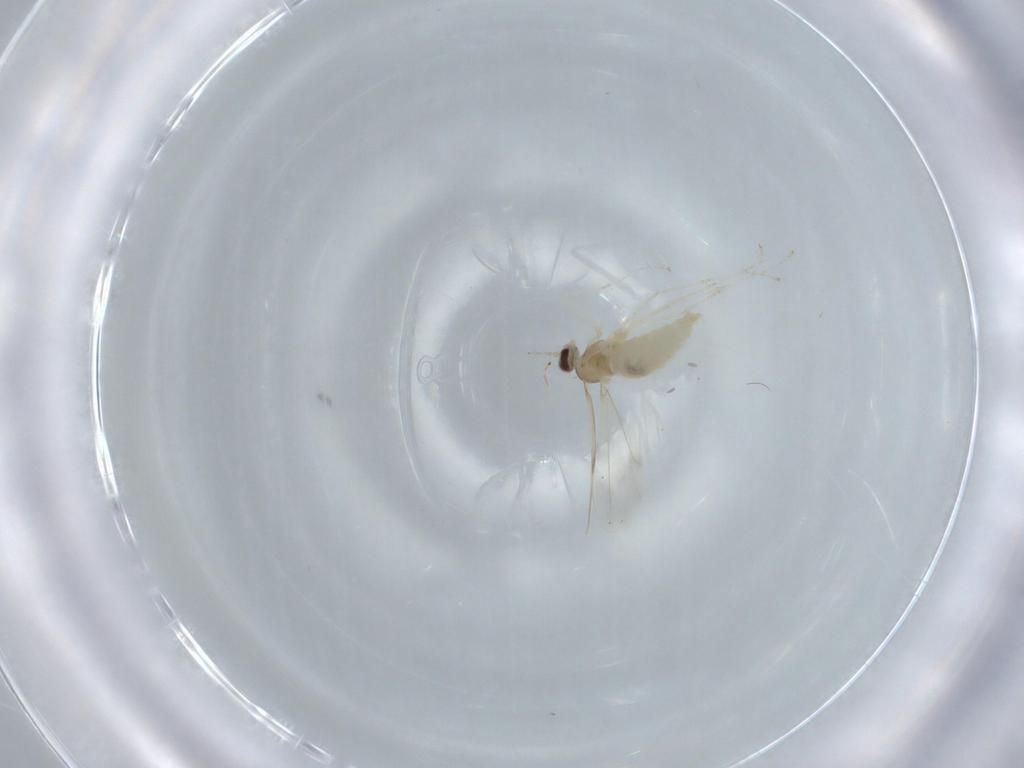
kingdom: Animalia
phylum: Arthropoda
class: Insecta
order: Diptera
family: Cecidomyiidae
